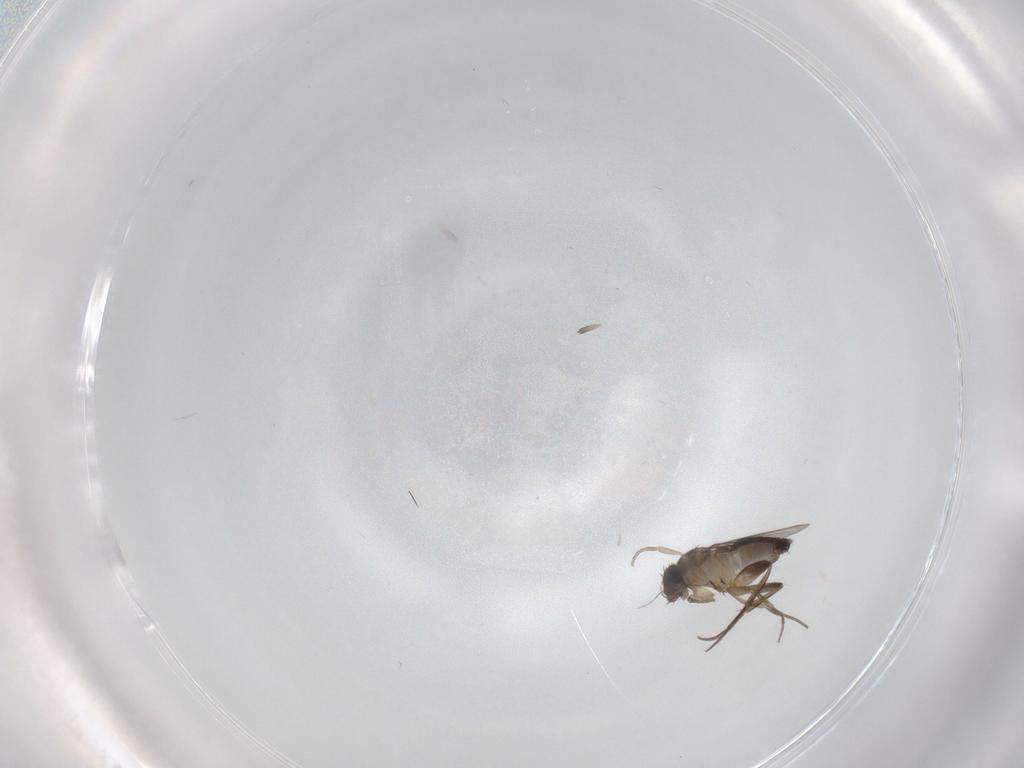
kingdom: Animalia
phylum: Arthropoda
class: Insecta
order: Diptera
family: Phoridae
